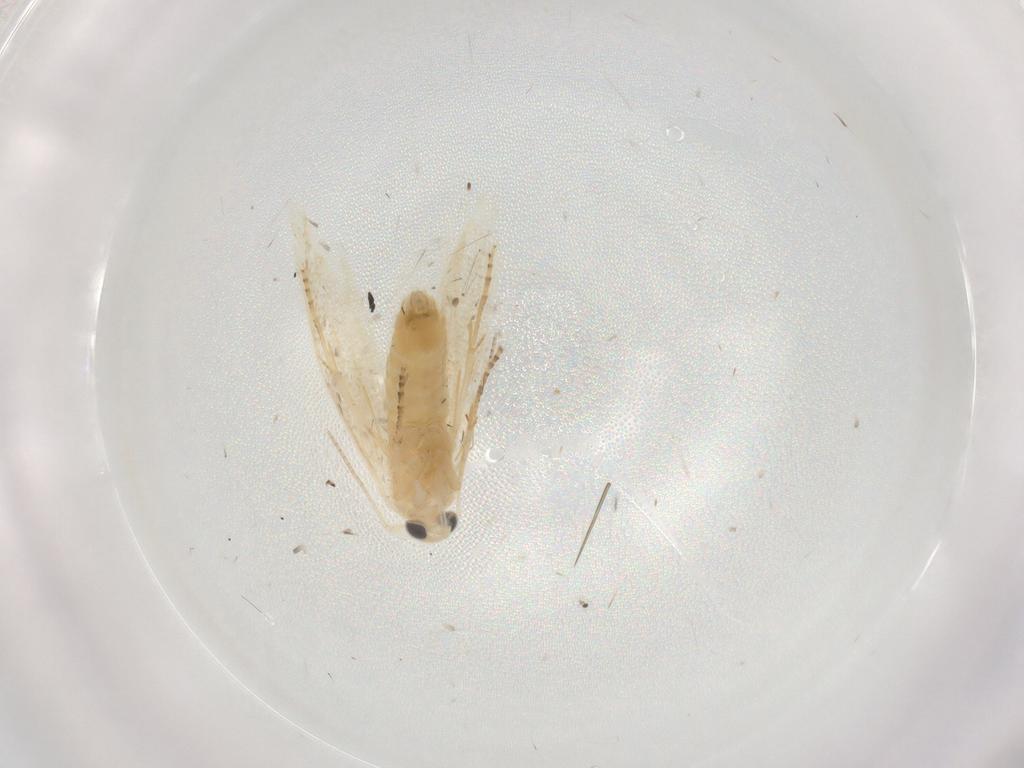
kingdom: Animalia
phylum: Arthropoda
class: Insecta
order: Lepidoptera
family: Bucculatricidae
